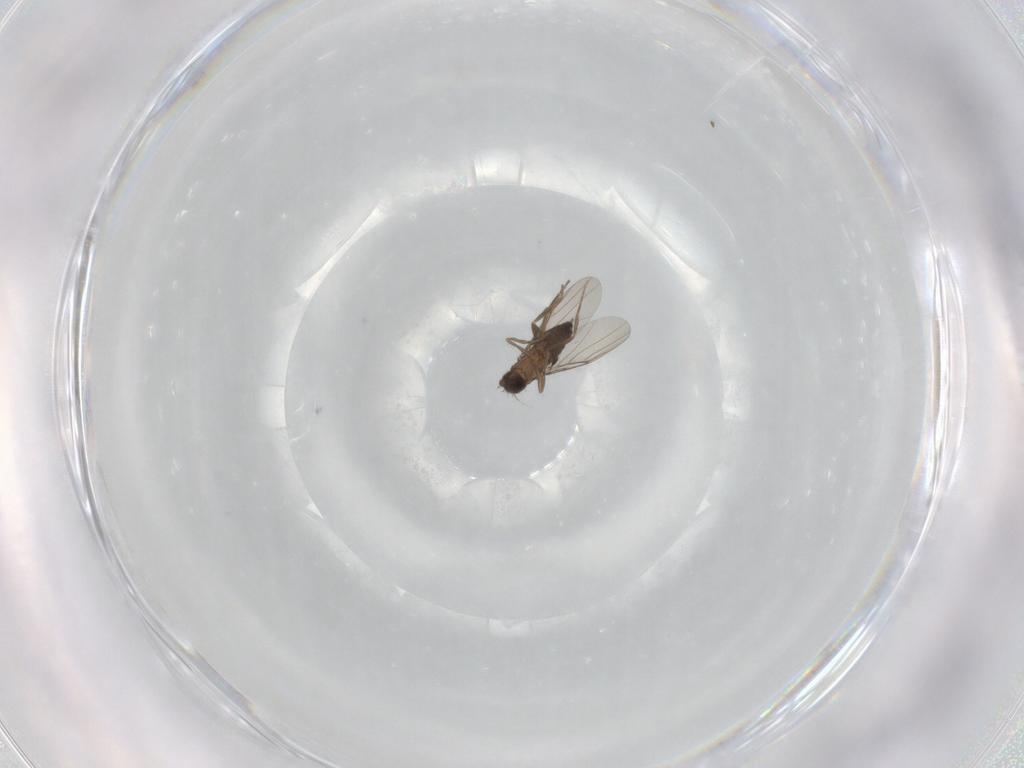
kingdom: Animalia
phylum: Arthropoda
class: Insecta
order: Diptera
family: Phoridae
